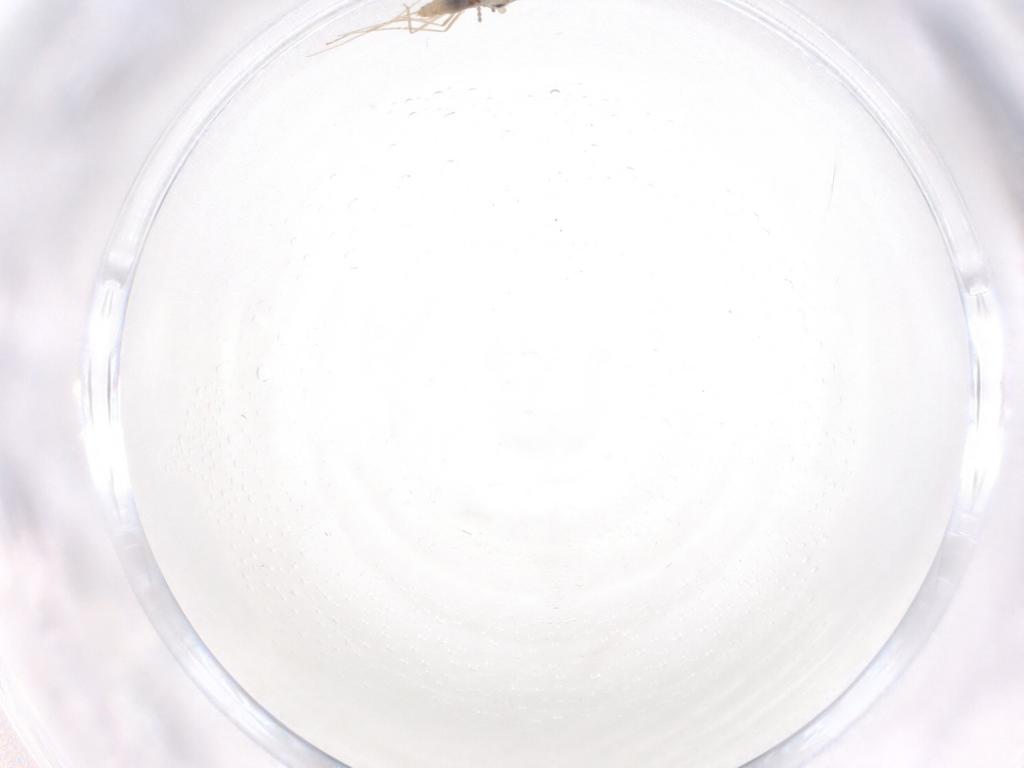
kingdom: Animalia
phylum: Arthropoda
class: Insecta
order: Diptera
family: Cecidomyiidae
